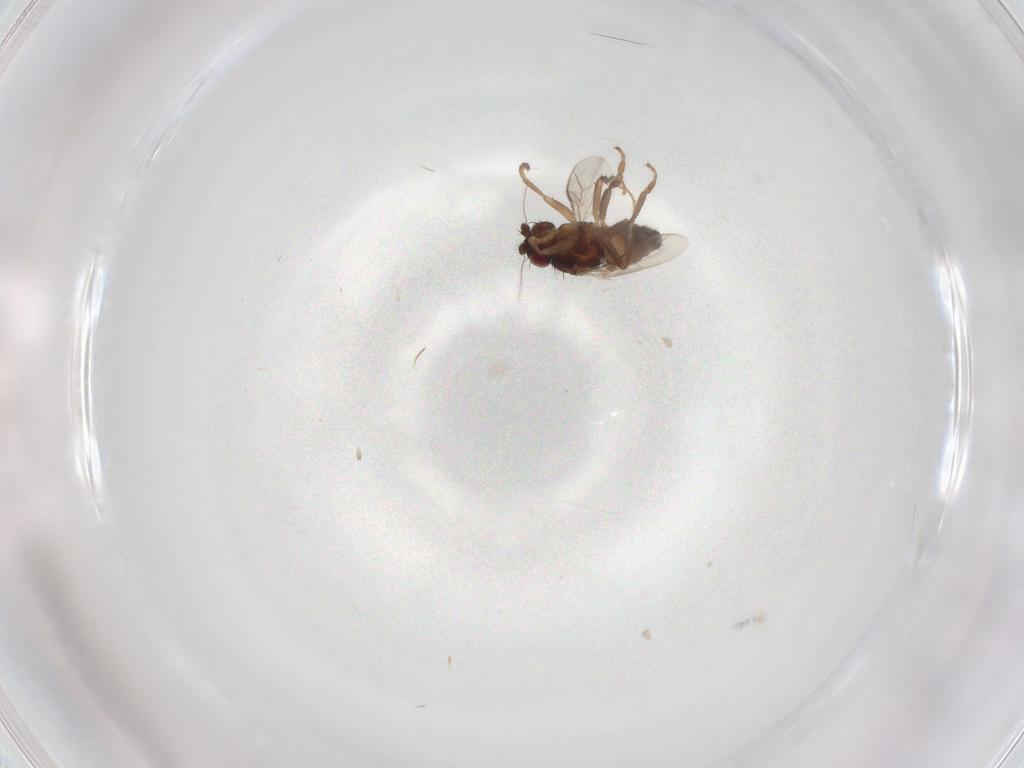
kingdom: Animalia
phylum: Arthropoda
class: Insecta
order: Diptera
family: Sphaeroceridae
